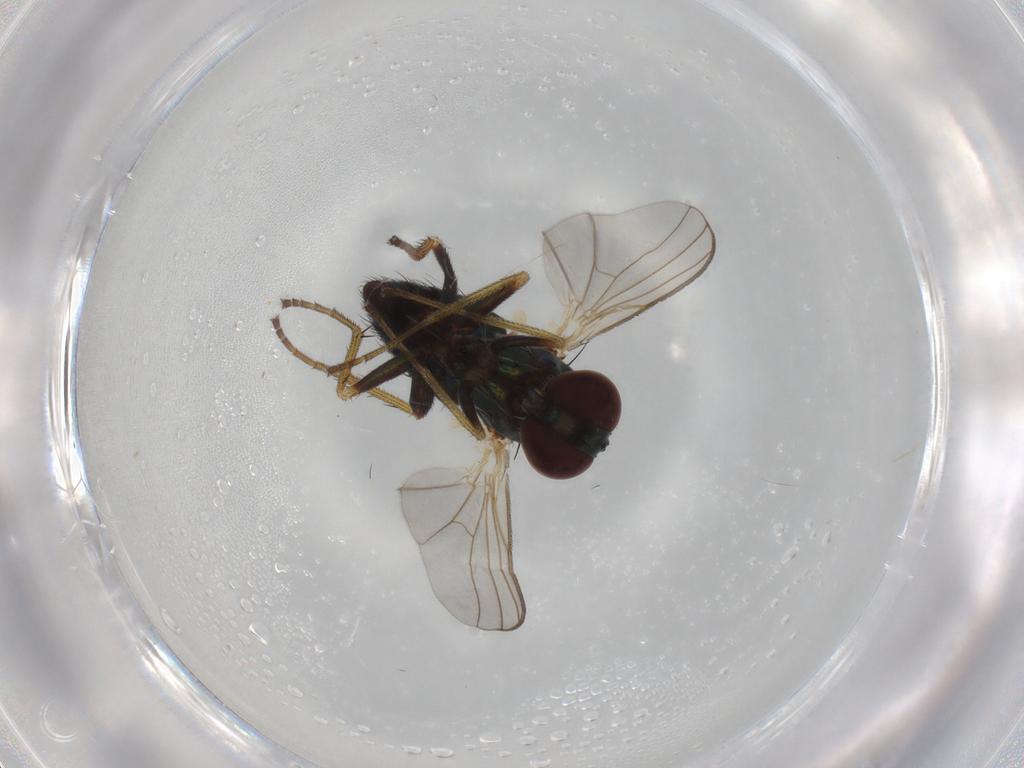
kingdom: Animalia
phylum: Arthropoda
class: Insecta
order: Diptera
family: Dolichopodidae
